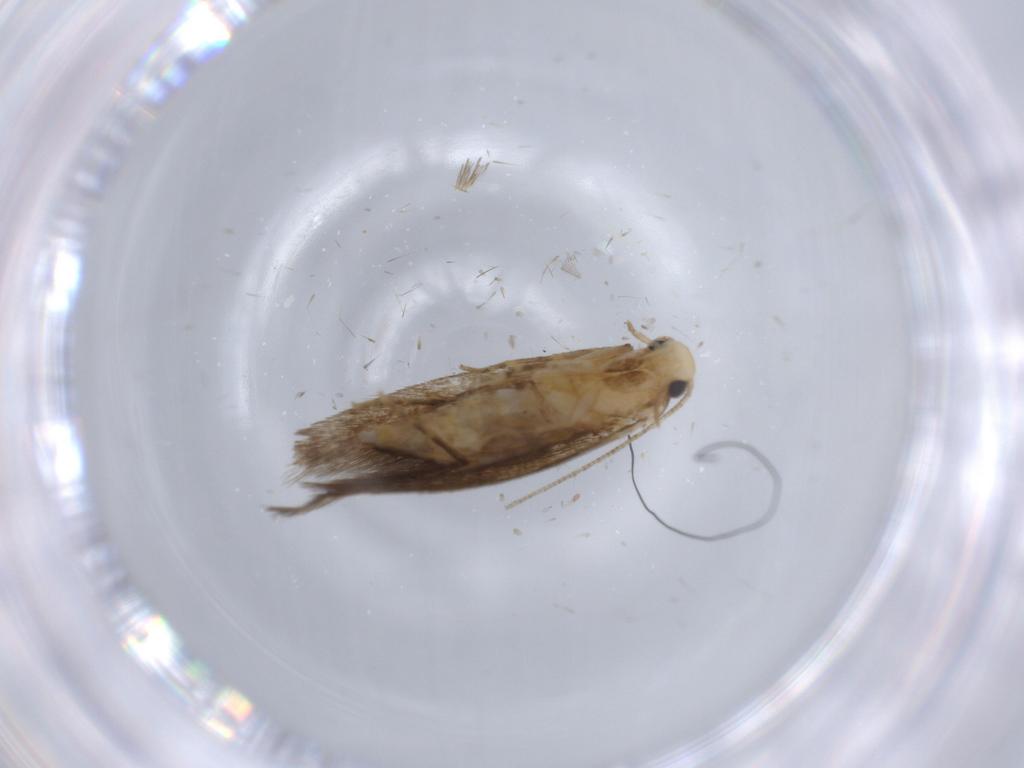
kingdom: Animalia
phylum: Arthropoda
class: Insecta
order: Lepidoptera
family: Tineidae
